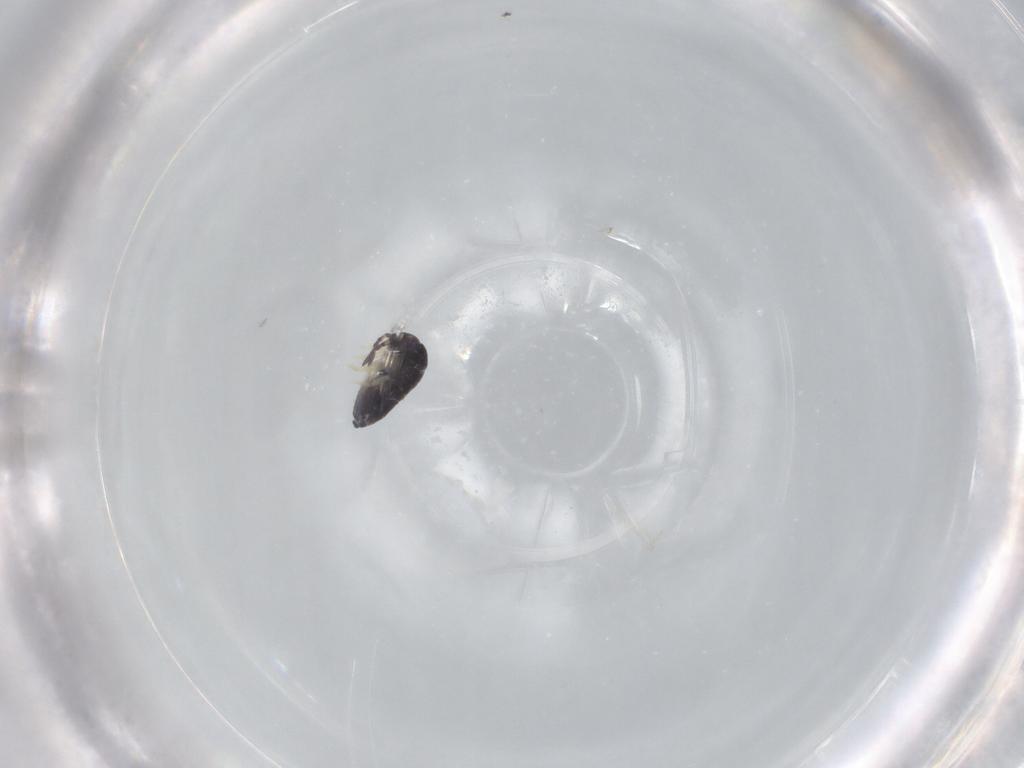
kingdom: Animalia
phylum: Arthropoda
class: Collembola
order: Entomobryomorpha
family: Entomobryidae
